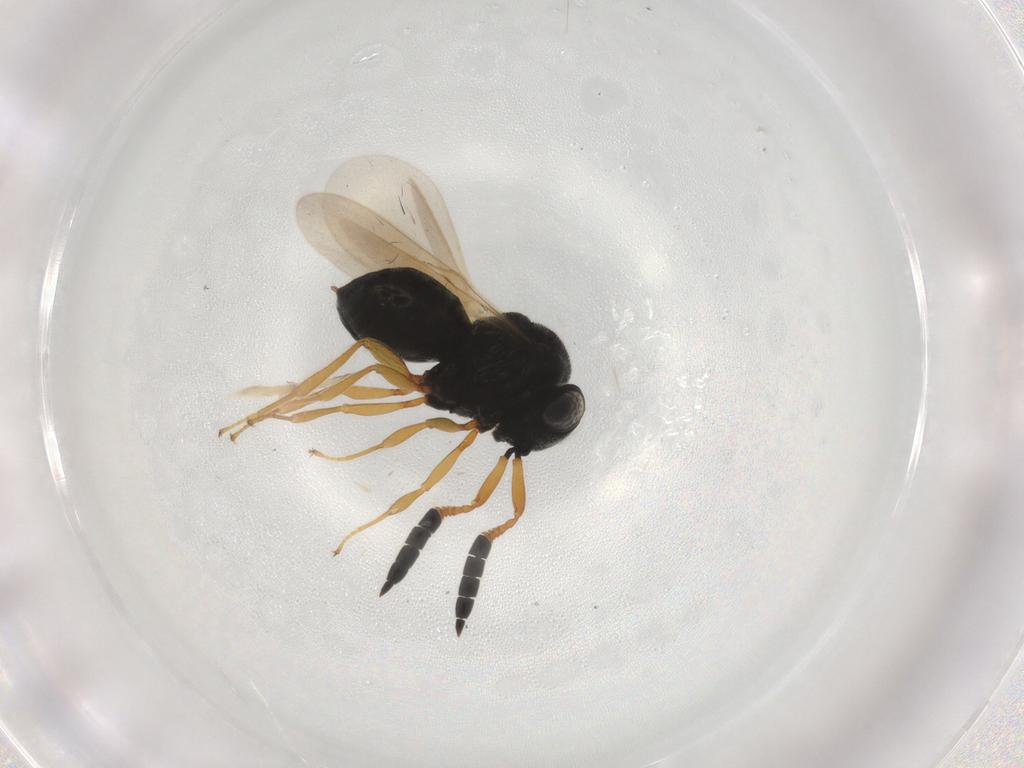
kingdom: Animalia
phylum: Arthropoda
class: Insecta
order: Hymenoptera
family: Scelionidae
